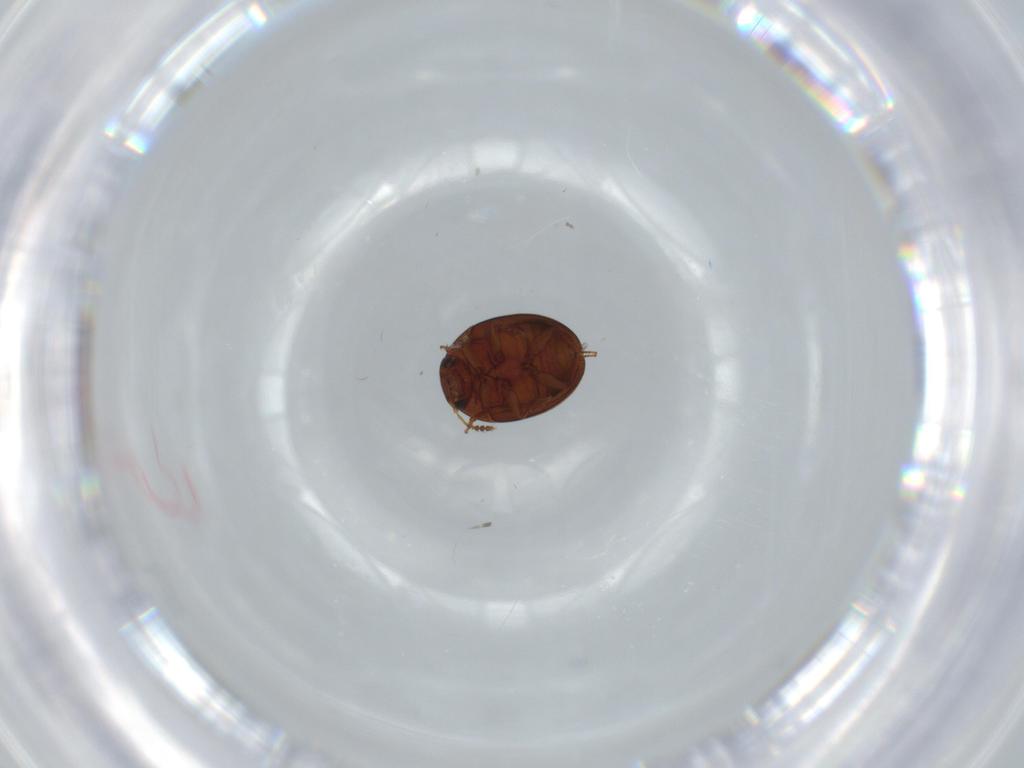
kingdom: Animalia
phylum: Arthropoda
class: Insecta
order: Coleoptera
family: Leiodidae
